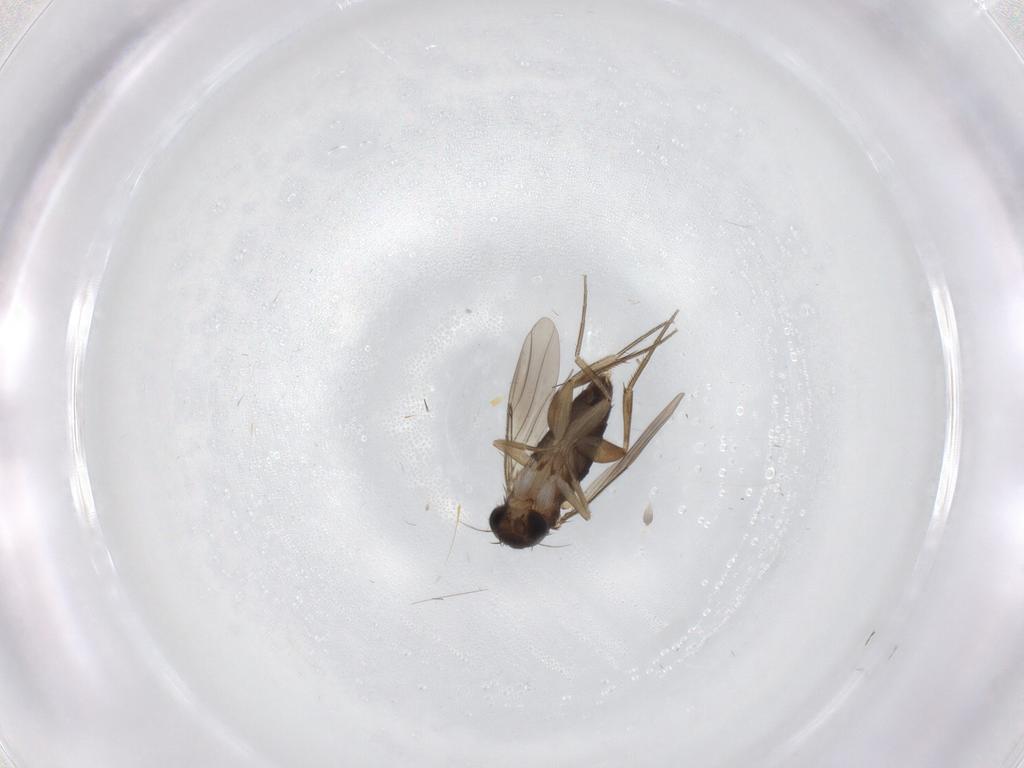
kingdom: Animalia
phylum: Arthropoda
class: Insecta
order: Diptera
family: Phoridae
